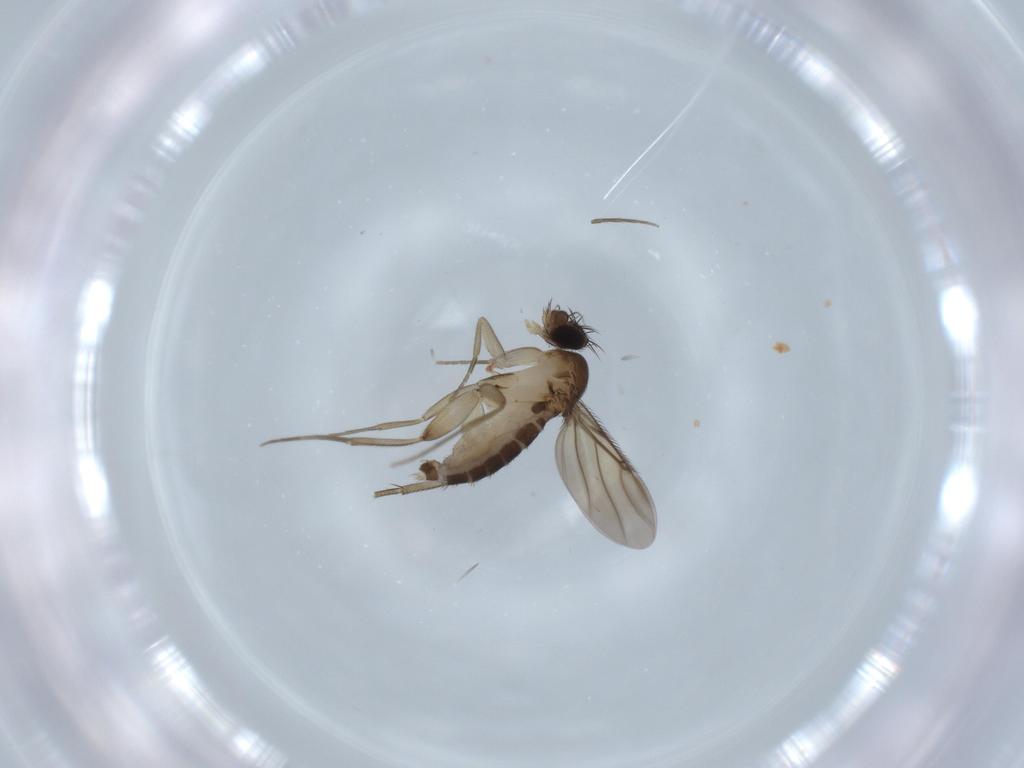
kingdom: Animalia
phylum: Arthropoda
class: Insecta
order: Diptera
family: Phoridae
